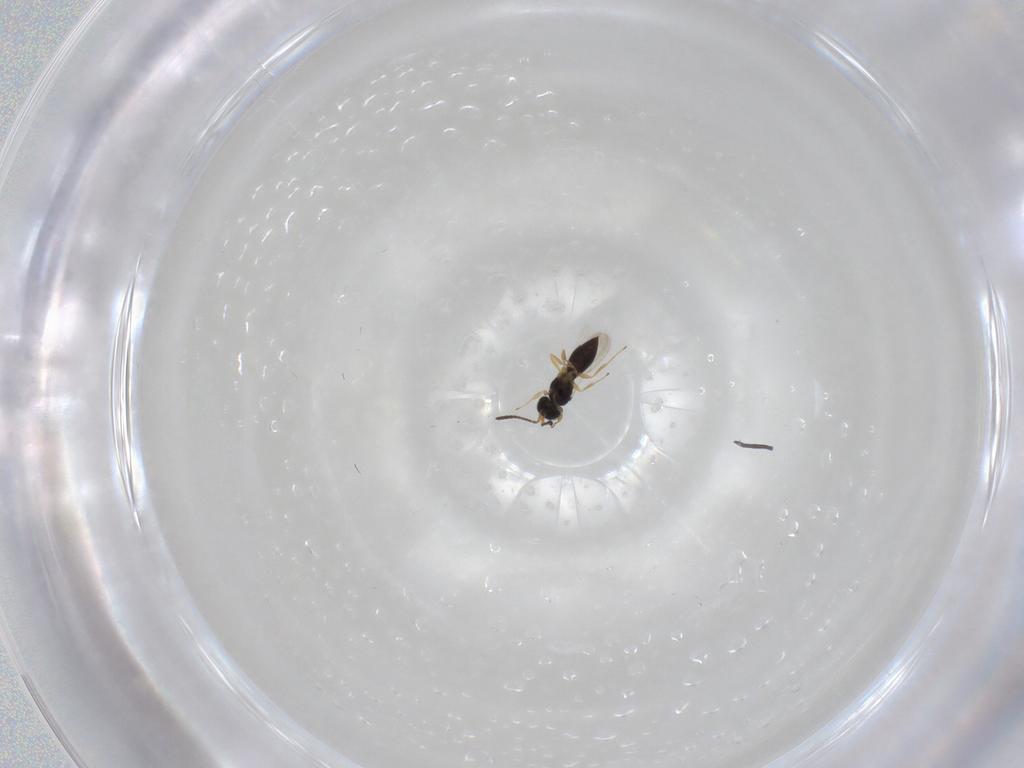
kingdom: Animalia
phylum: Arthropoda
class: Insecta
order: Hymenoptera
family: Scelionidae
